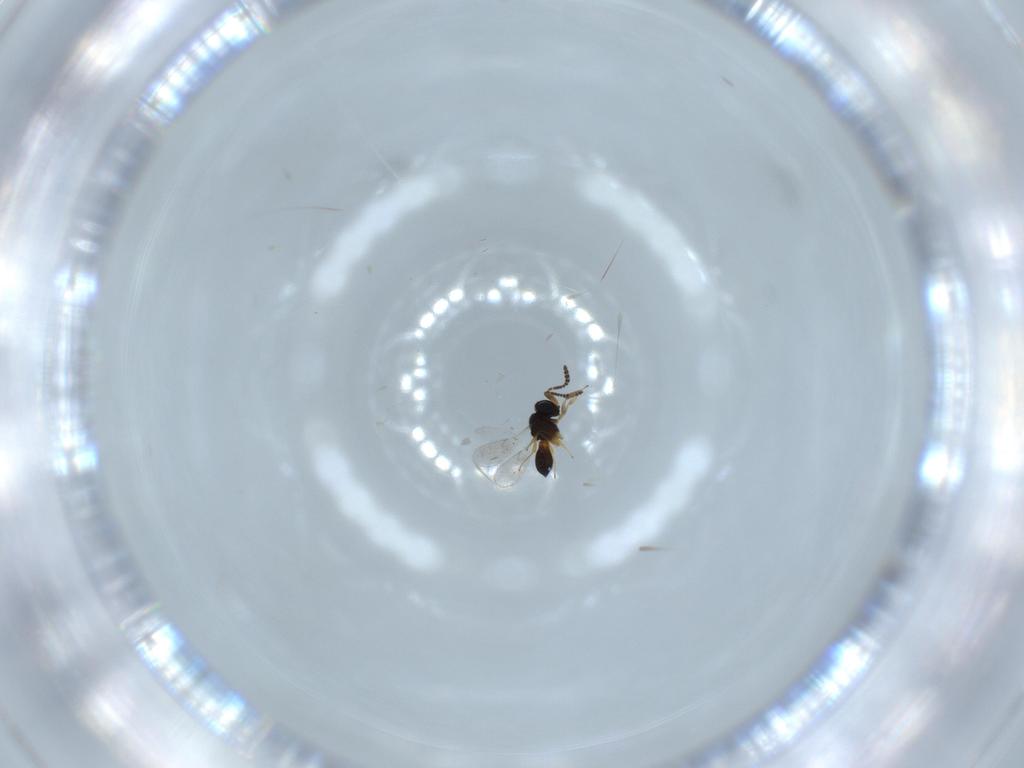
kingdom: Animalia
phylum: Arthropoda
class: Insecta
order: Hymenoptera
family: Scelionidae
